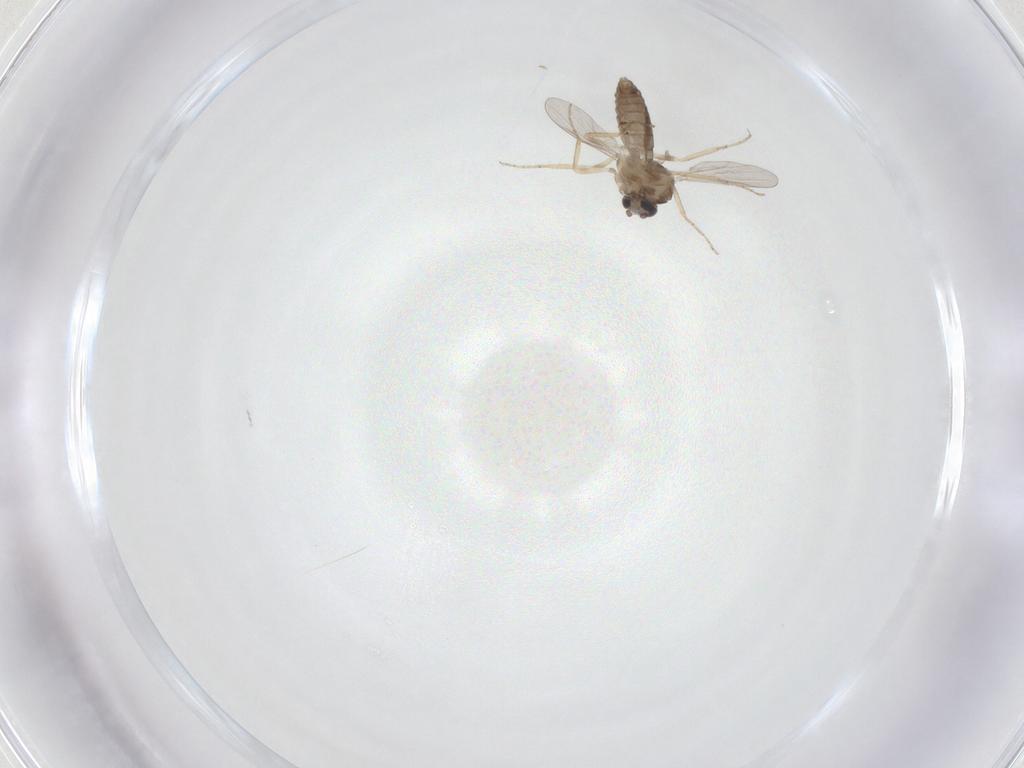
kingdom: Animalia
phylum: Arthropoda
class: Insecta
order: Diptera
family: Ceratopogonidae
